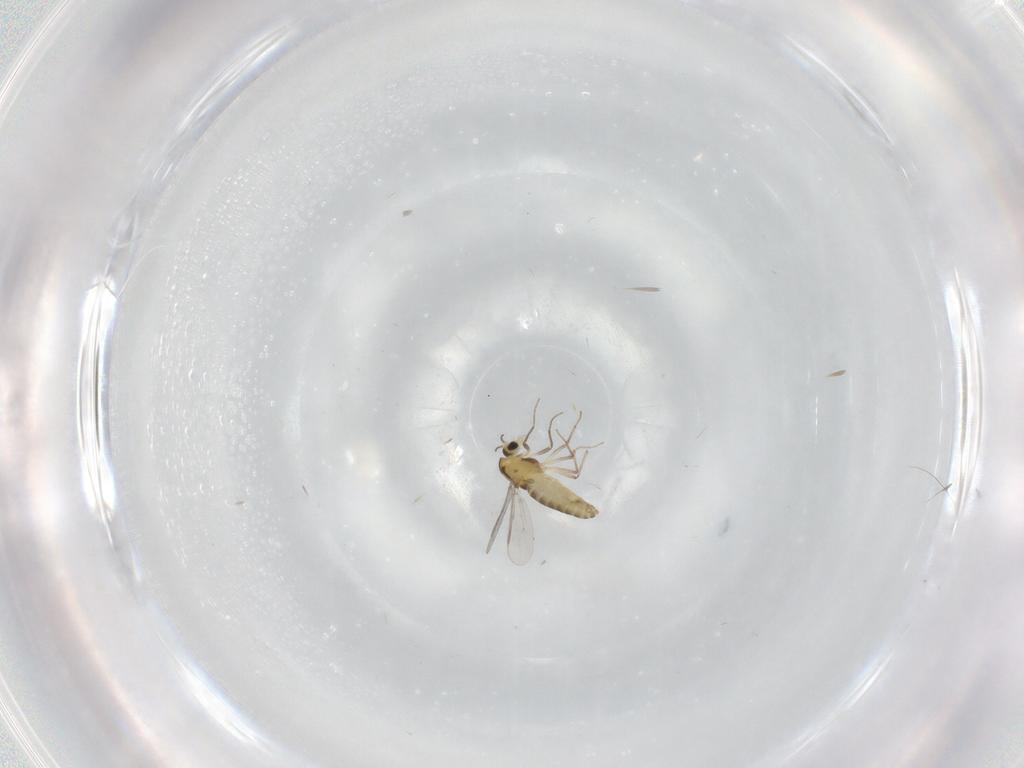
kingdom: Animalia
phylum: Arthropoda
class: Insecta
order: Diptera
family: Chironomidae
